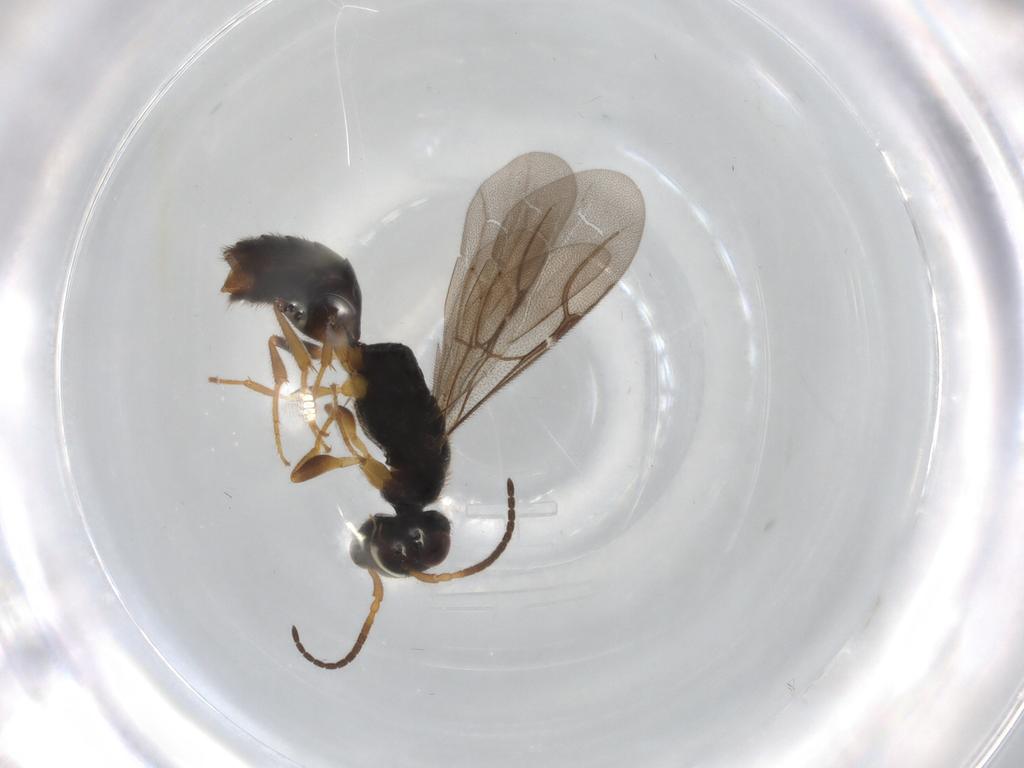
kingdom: Animalia
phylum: Arthropoda
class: Insecta
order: Hymenoptera
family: Bethylidae
